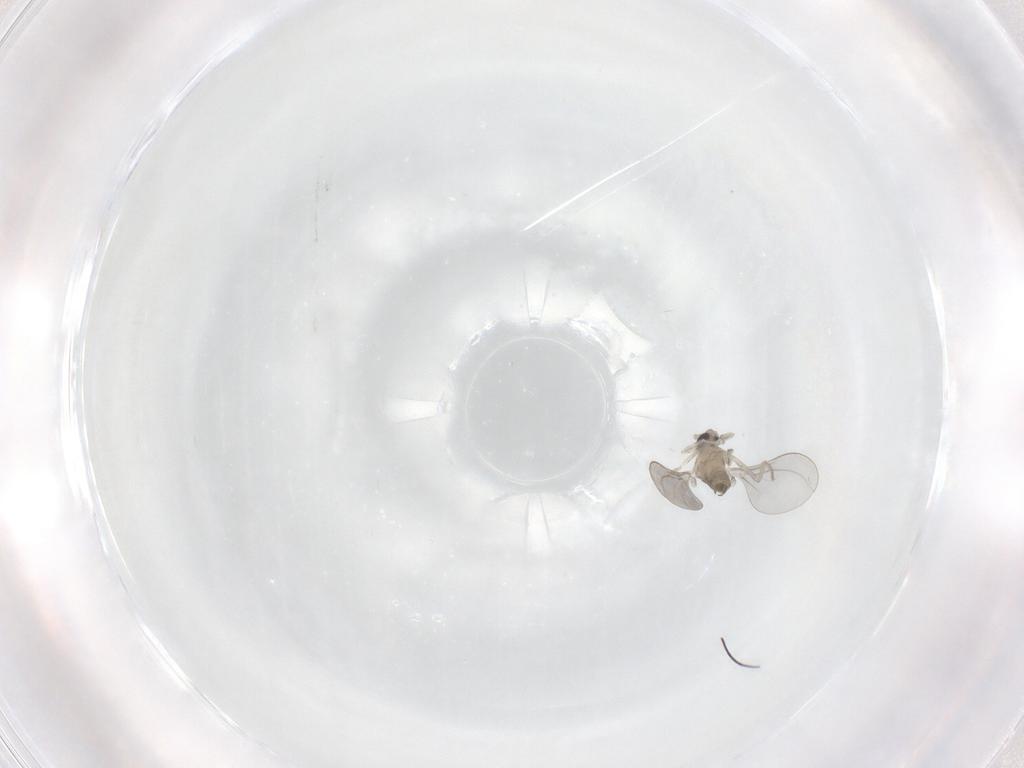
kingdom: Animalia
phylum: Arthropoda
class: Insecta
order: Diptera
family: Cecidomyiidae
